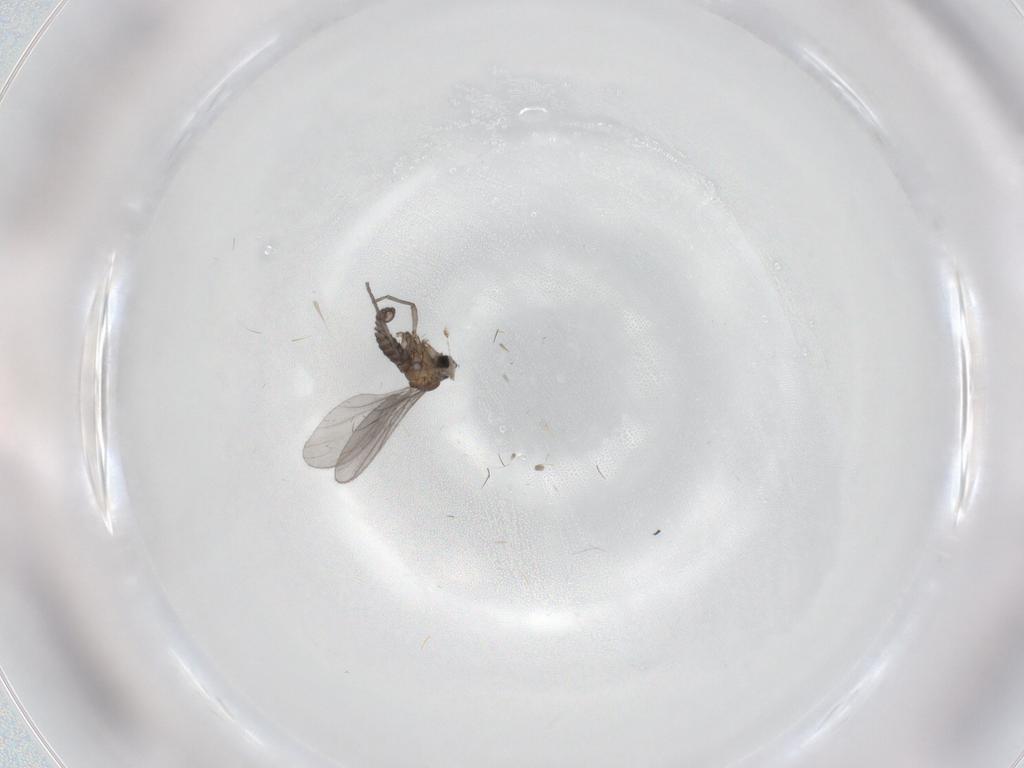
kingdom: Animalia
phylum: Arthropoda
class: Insecta
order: Diptera
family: Sciaridae
